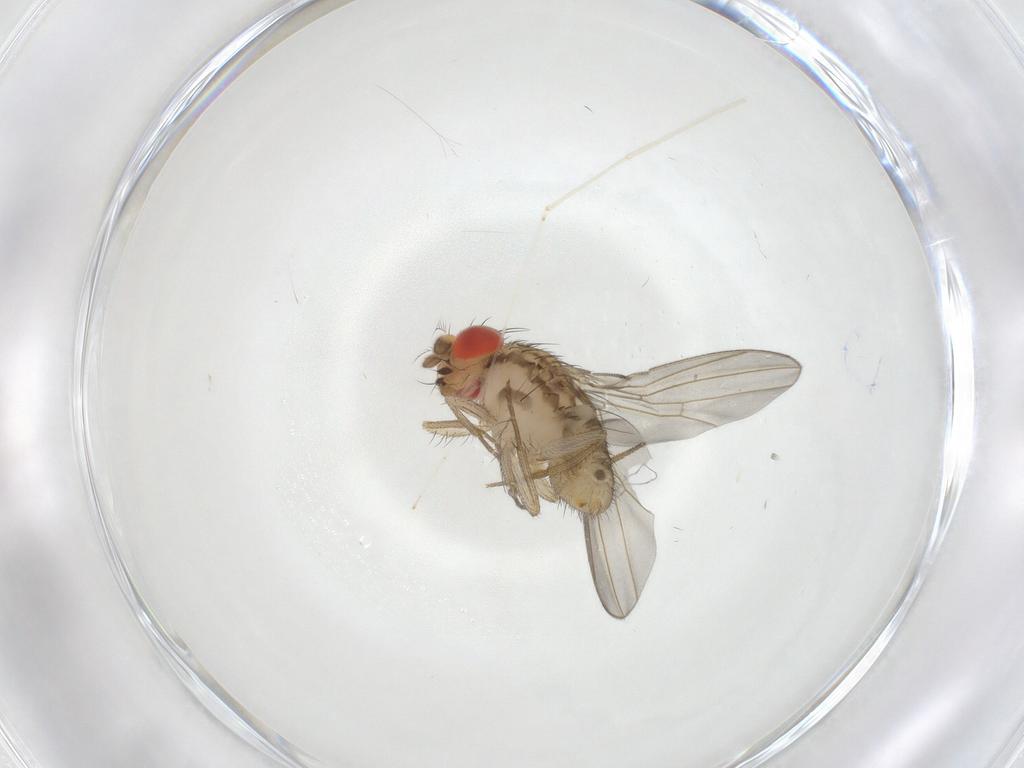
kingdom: Animalia
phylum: Arthropoda
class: Insecta
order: Diptera
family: Drosophilidae
